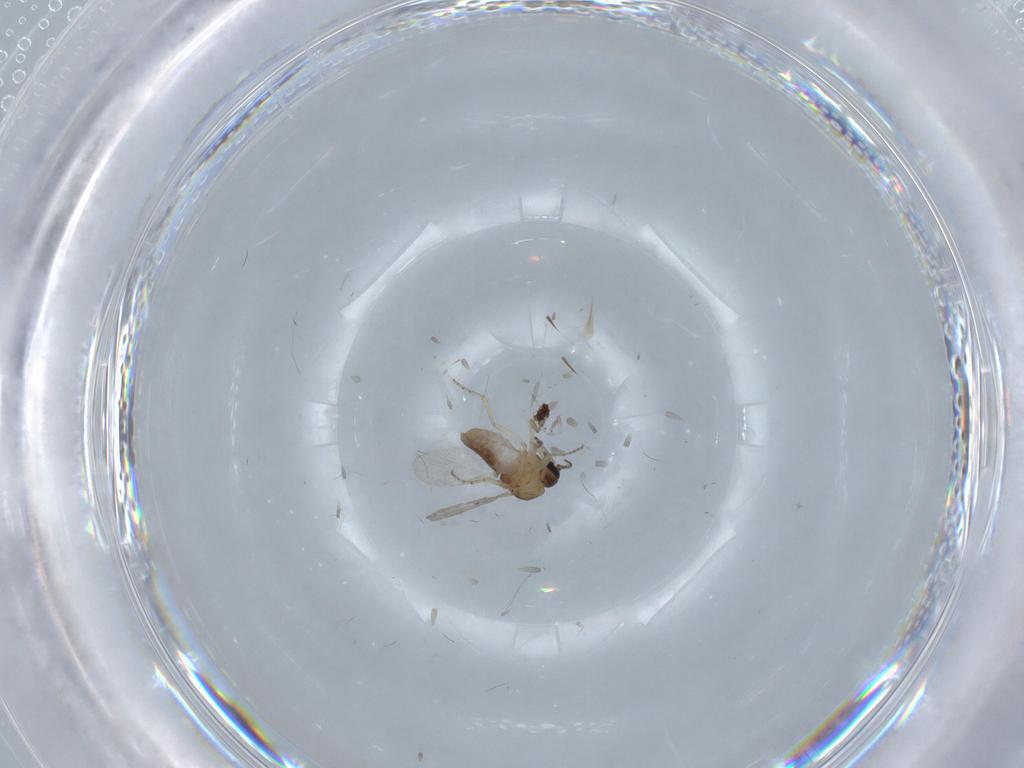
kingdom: Animalia
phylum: Arthropoda
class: Insecta
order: Diptera
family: Ceratopogonidae
